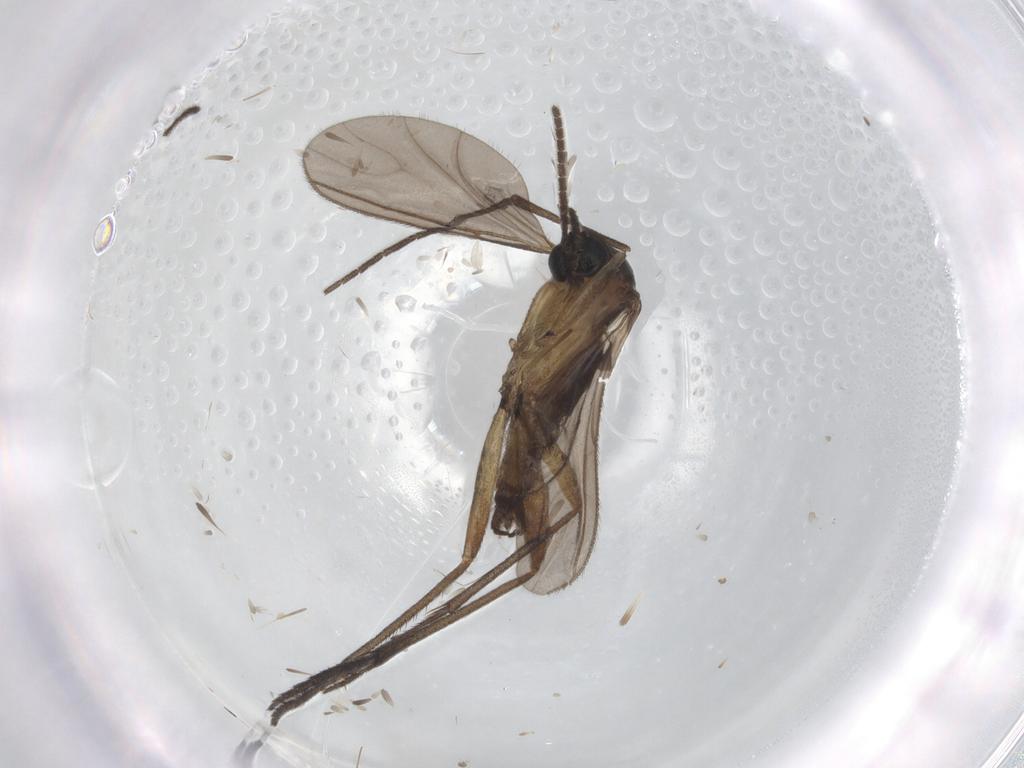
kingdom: Animalia
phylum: Arthropoda
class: Insecta
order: Diptera
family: Sciaridae
